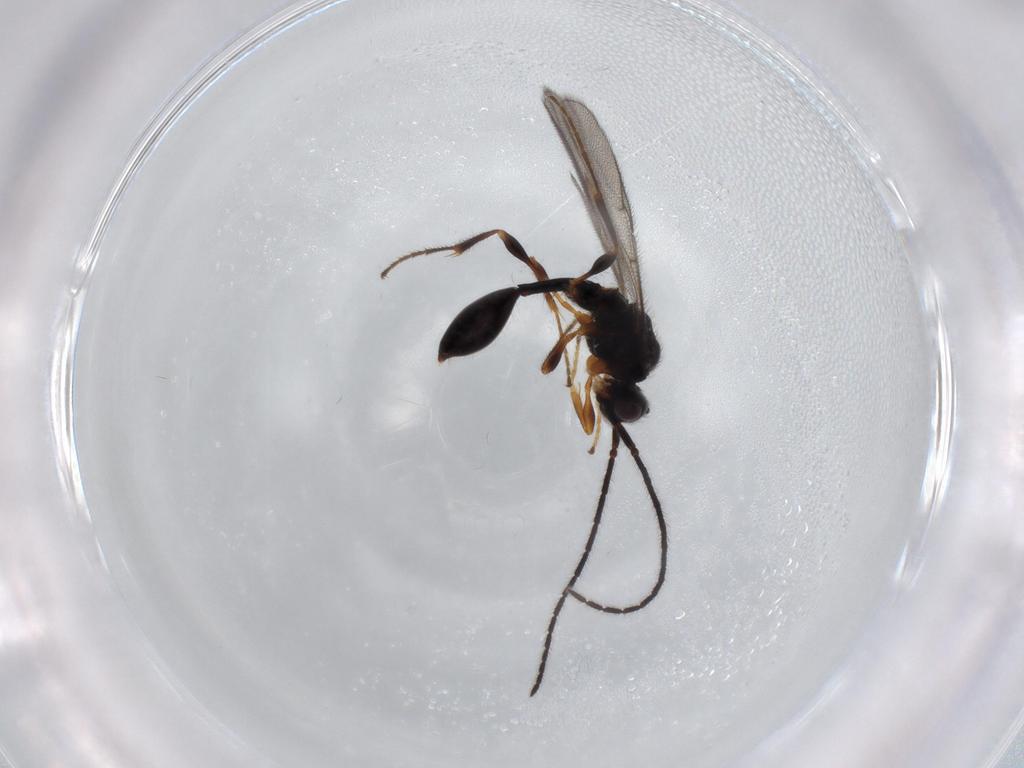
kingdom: Animalia
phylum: Arthropoda
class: Insecta
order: Hymenoptera
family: Diapriidae
